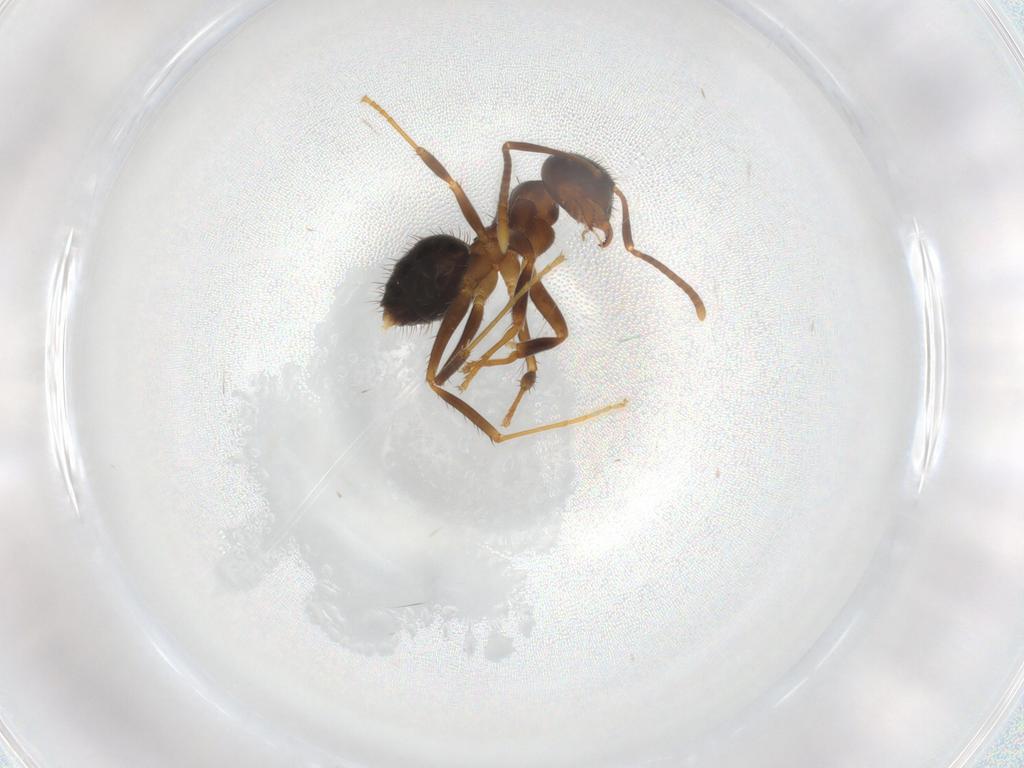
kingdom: Animalia
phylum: Arthropoda
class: Insecta
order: Hymenoptera
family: Formicidae
